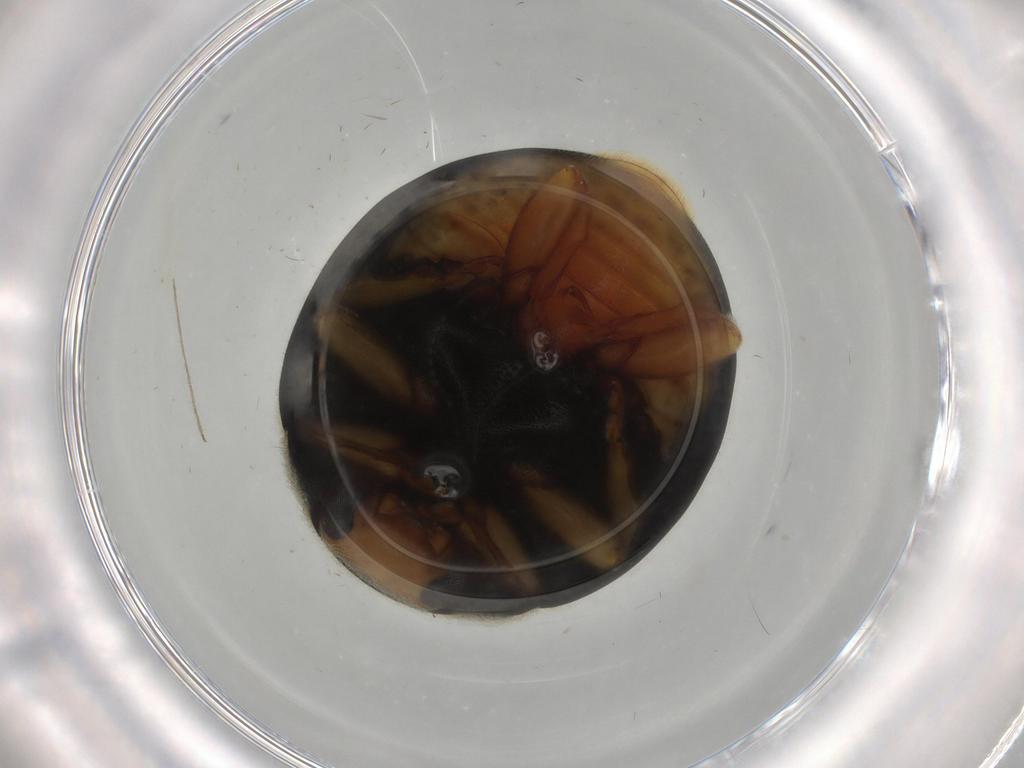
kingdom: Animalia
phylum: Arthropoda
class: Insecta
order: Coleoptera
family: Coccinellidae
